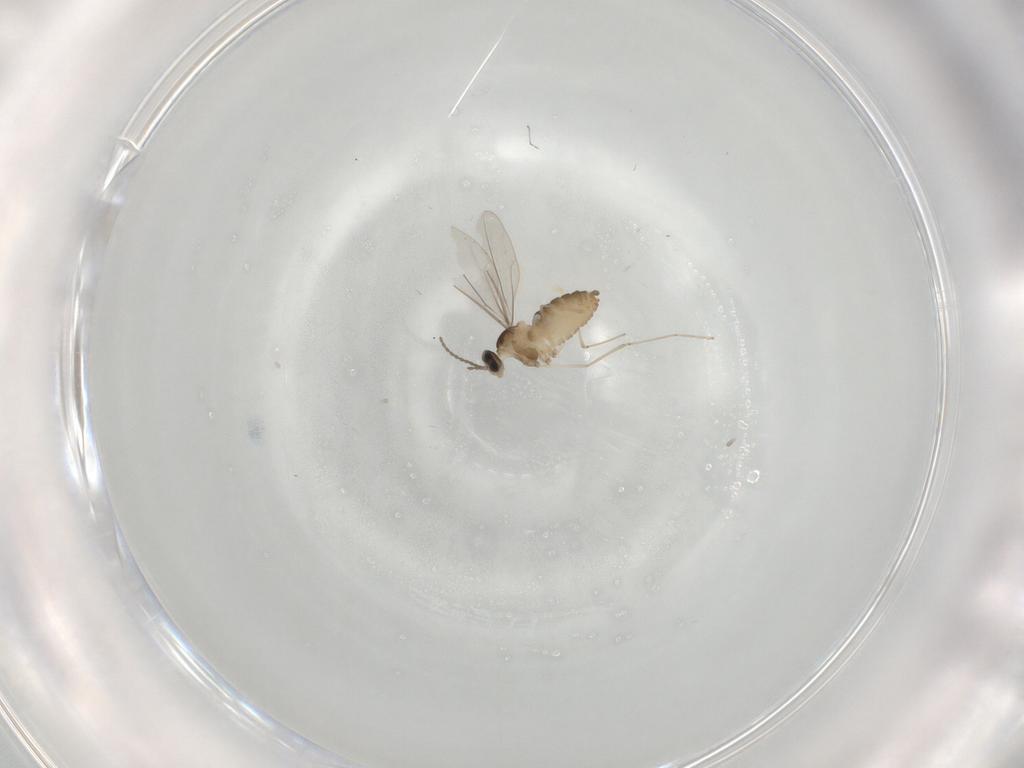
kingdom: Animalia
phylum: Arthropoda
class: Insecta
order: Diptera
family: Cecidomyiidae
